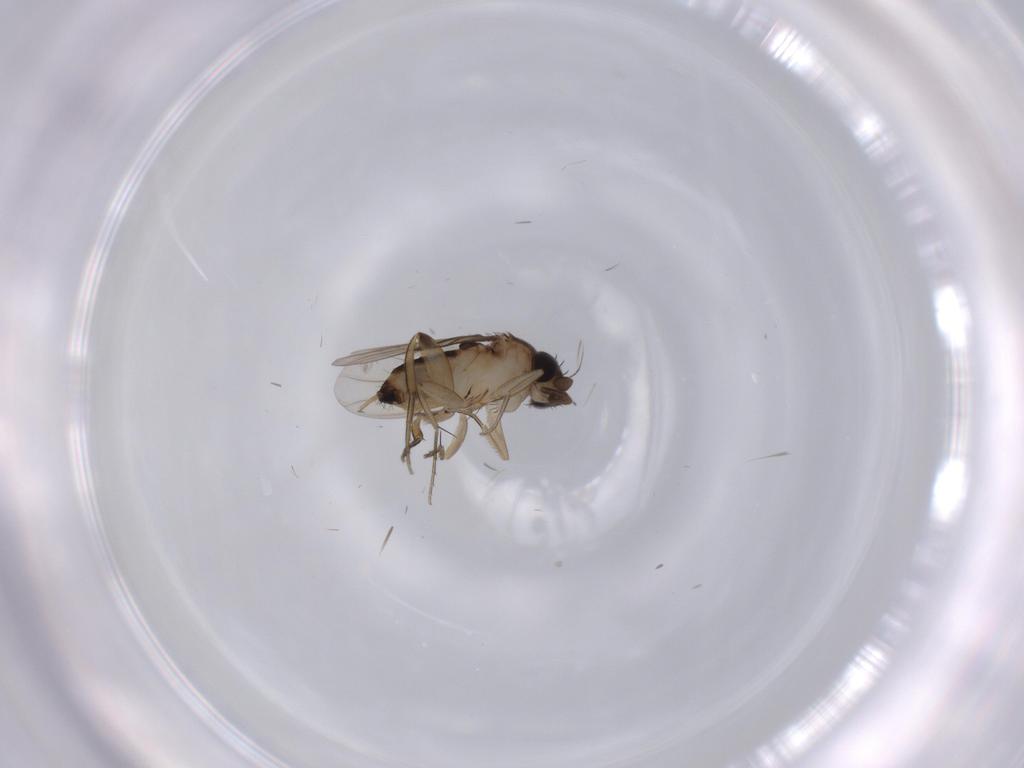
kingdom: Animalia
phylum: Arthropoda
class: Insecta
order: Diptera
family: Phoridae
